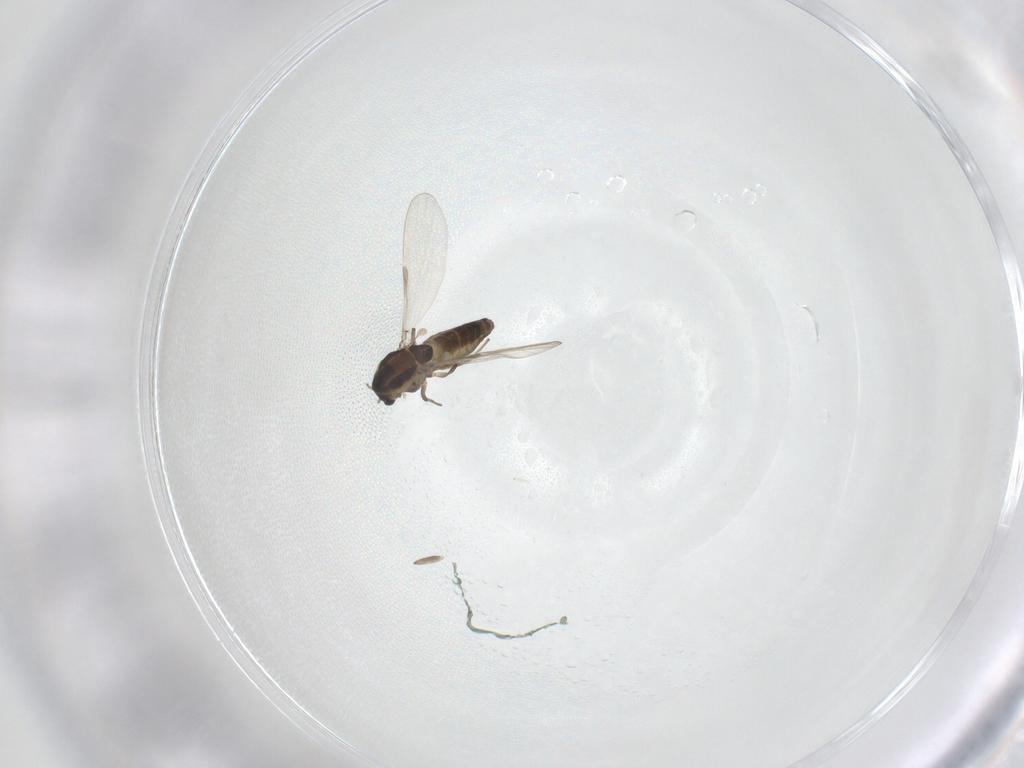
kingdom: Animalia
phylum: Arthropoda
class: Insecta
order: Diptera
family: Chironomidae
